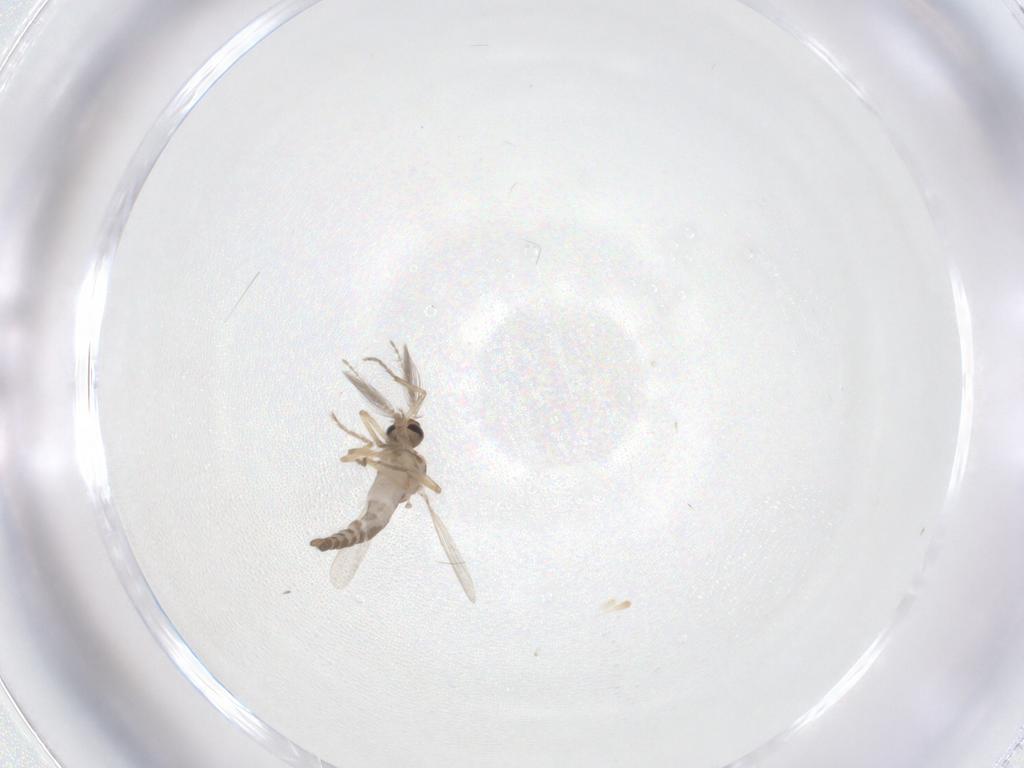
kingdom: Animalia
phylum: Arthropoda
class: Insecta
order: Diptera
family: Ceratopogonidae
